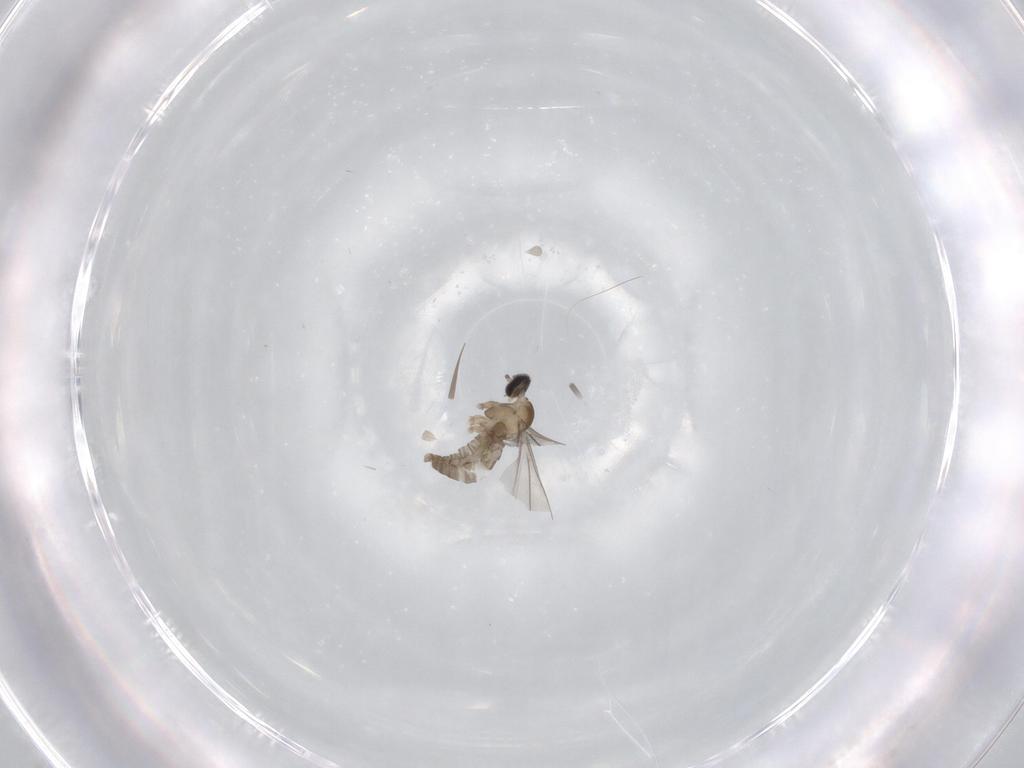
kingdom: Animalia
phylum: Arthropoda
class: Insecta
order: Diptera
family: Cecidomyiidae
